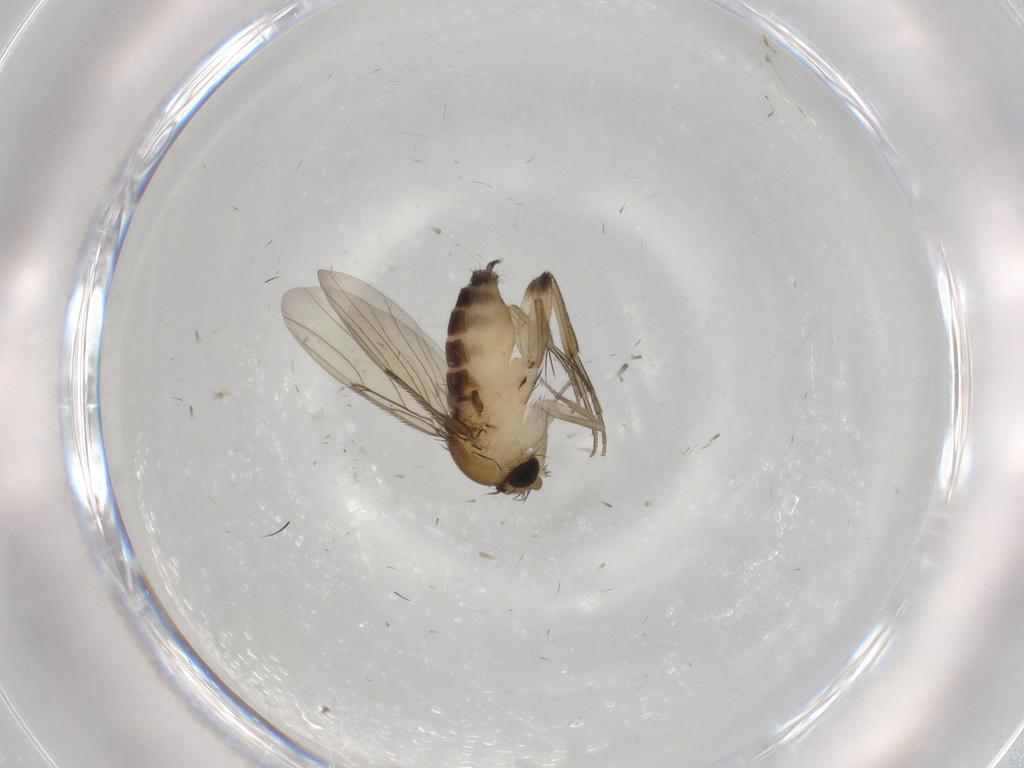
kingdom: Animalia
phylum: Arthropoda
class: Insecta
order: Diptera
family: Phoridae
